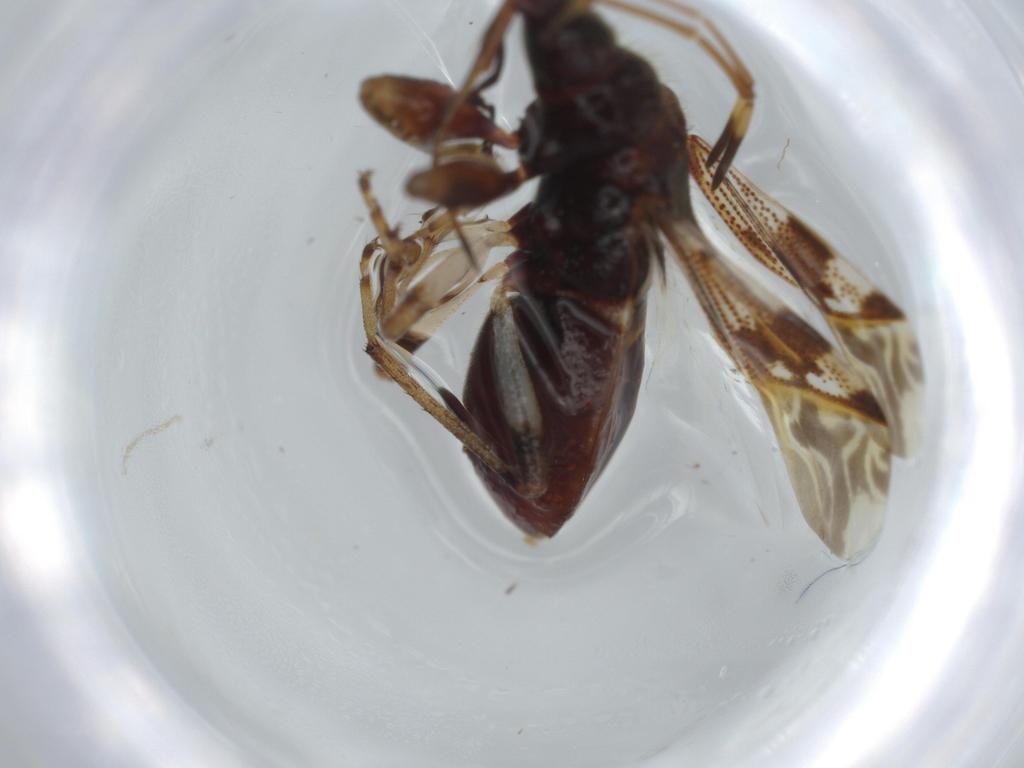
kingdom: Animalia
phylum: Arthropoda
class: Insecta
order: Hemiptera
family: Rhyparochromidae
